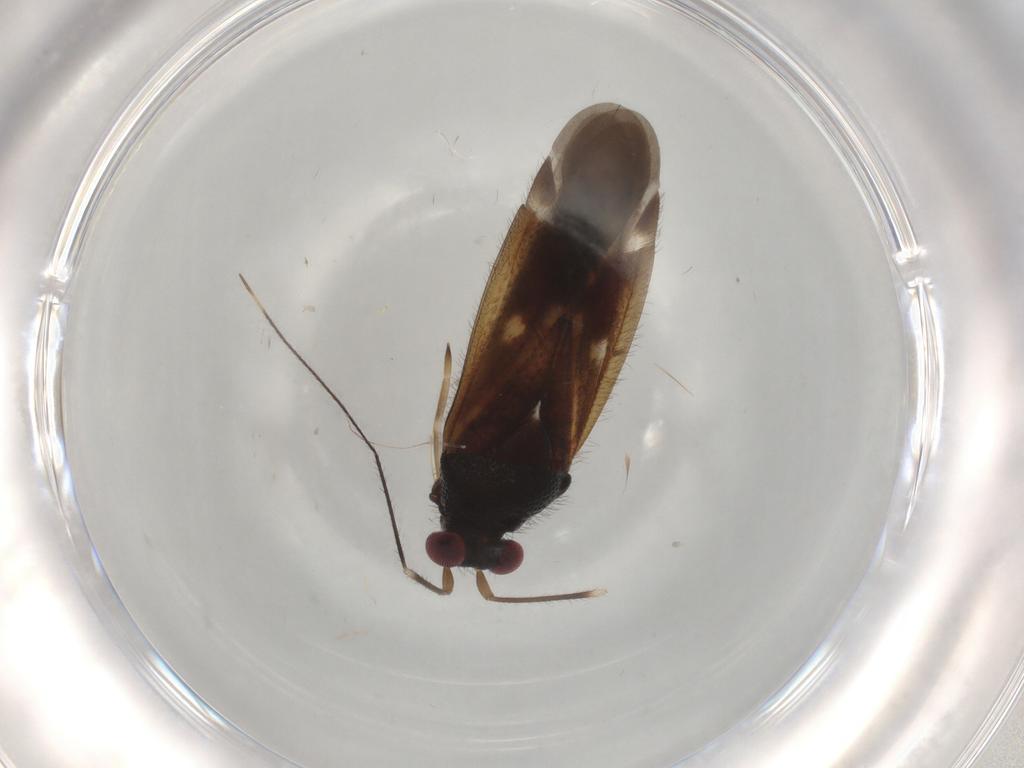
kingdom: Animalia
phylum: Arthropoda
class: Insecta
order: Hemiptera
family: Miridae
